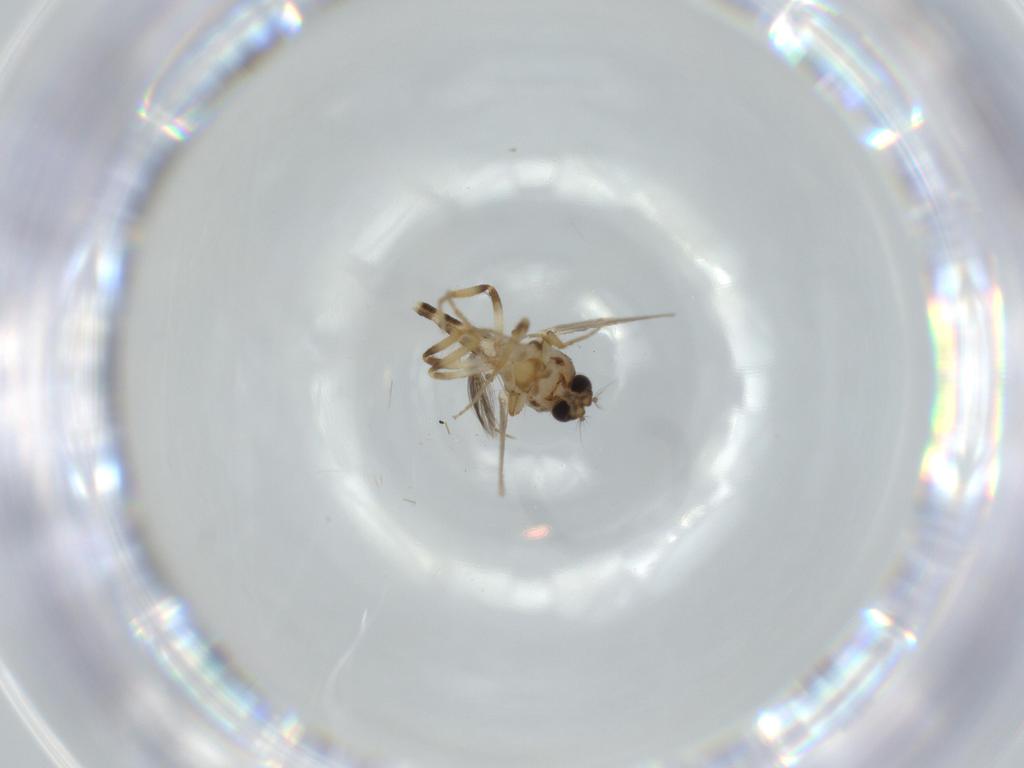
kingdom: Animalia
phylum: Arthropoda
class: Insecta
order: Diptera
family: Ceratopogonidae
